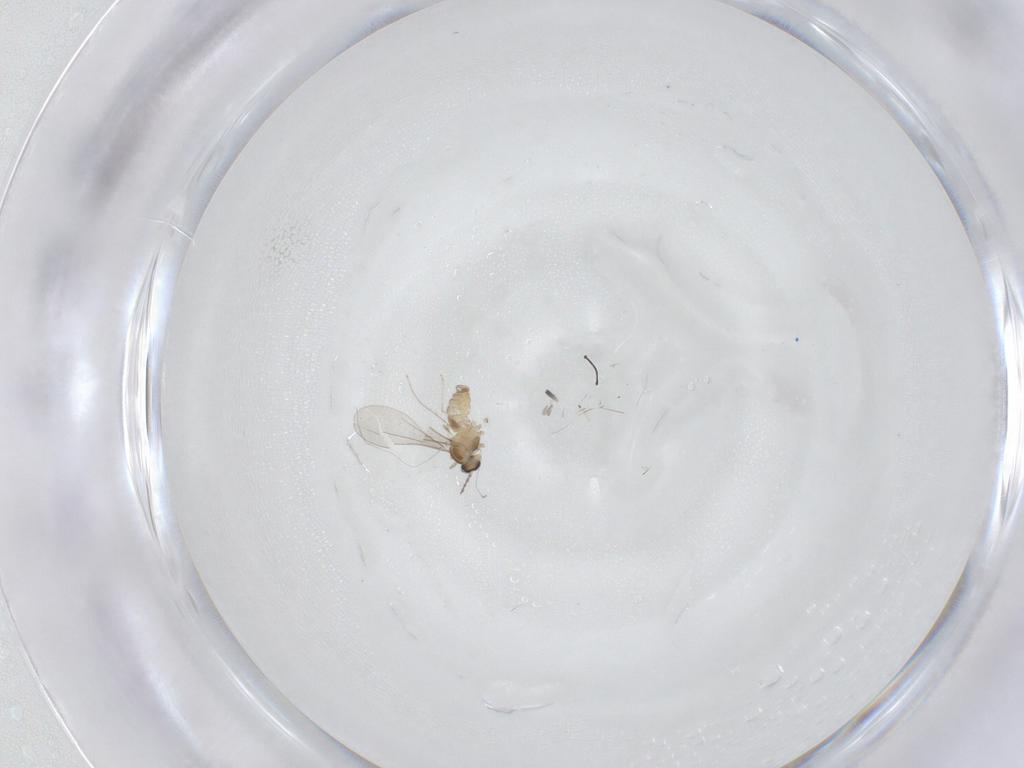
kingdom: Animalia
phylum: Arthropoda
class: Insecta
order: Diptera
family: Cecidomyiidae
